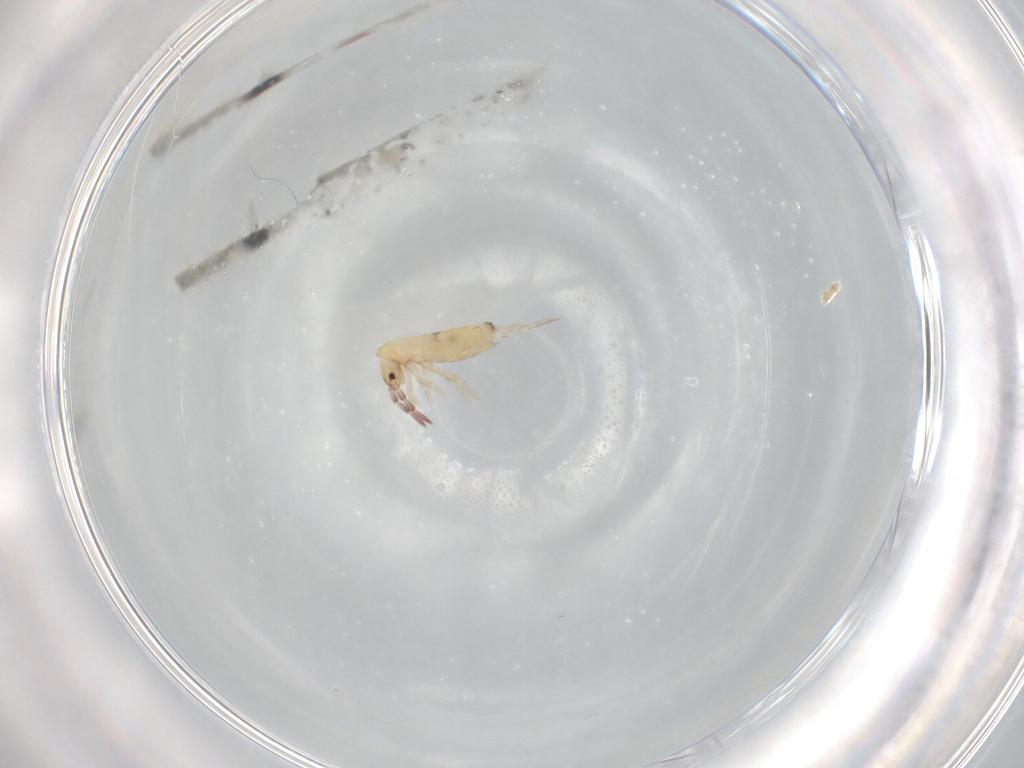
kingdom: Animalia
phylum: Arthropoda
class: Collembola
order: Entomobryomorpha
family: Entomobryidae
